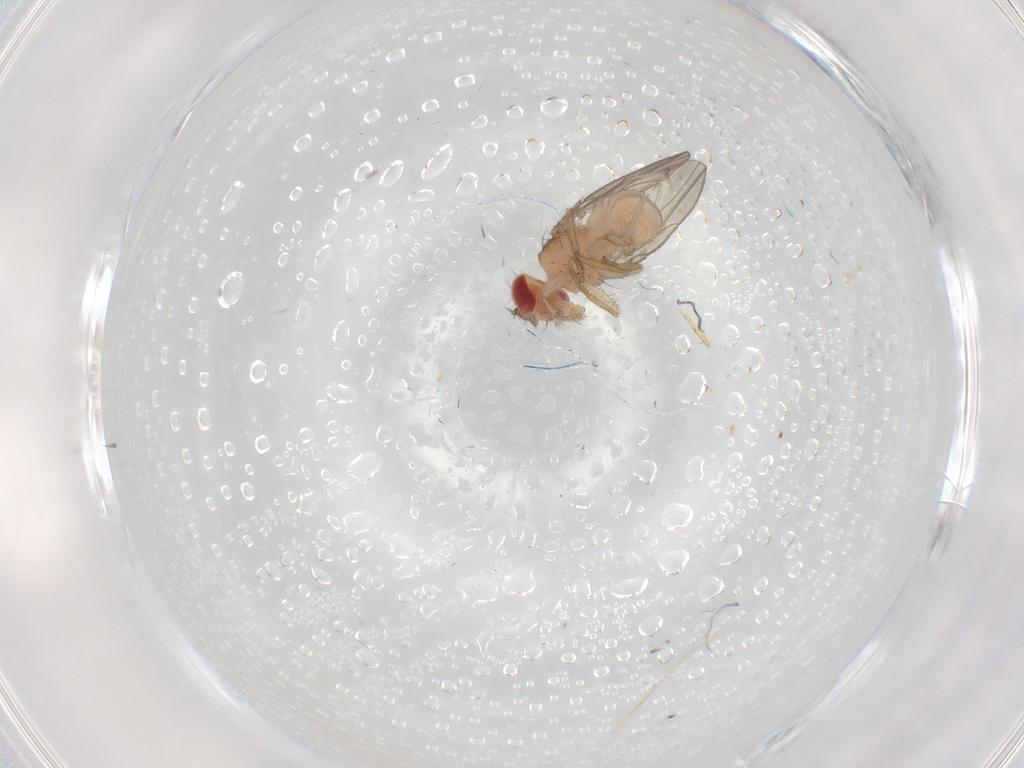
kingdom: Animalia
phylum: Arthropoda
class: Insecta
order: Diptera
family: Drosophilidae
